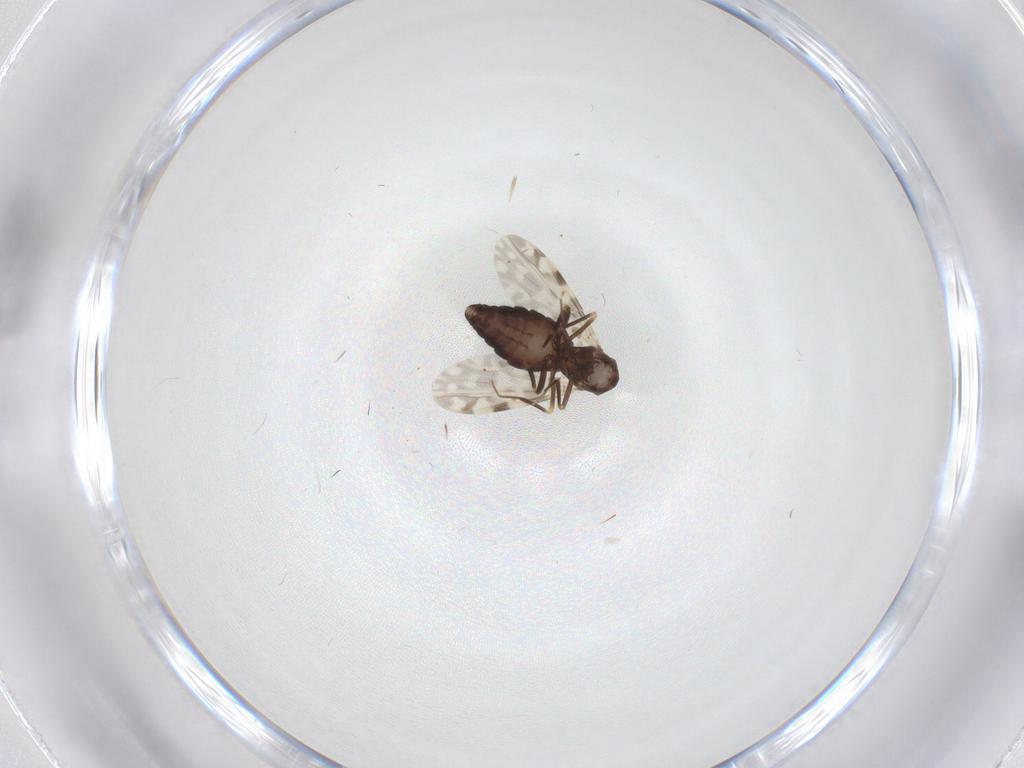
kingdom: Animalia
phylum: Arthropoda
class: Insecta
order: Diptera
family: Ceratopogonidae
